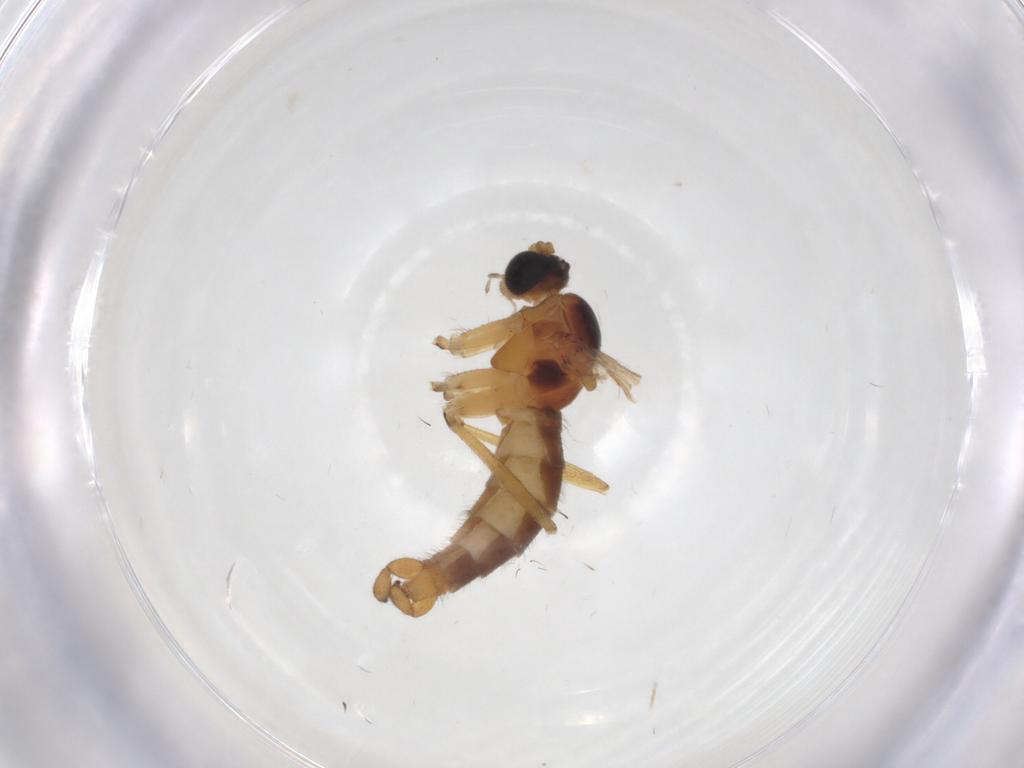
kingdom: Animalia
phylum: Arthropoda
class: Insecta
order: Diptera
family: Sciaridae
